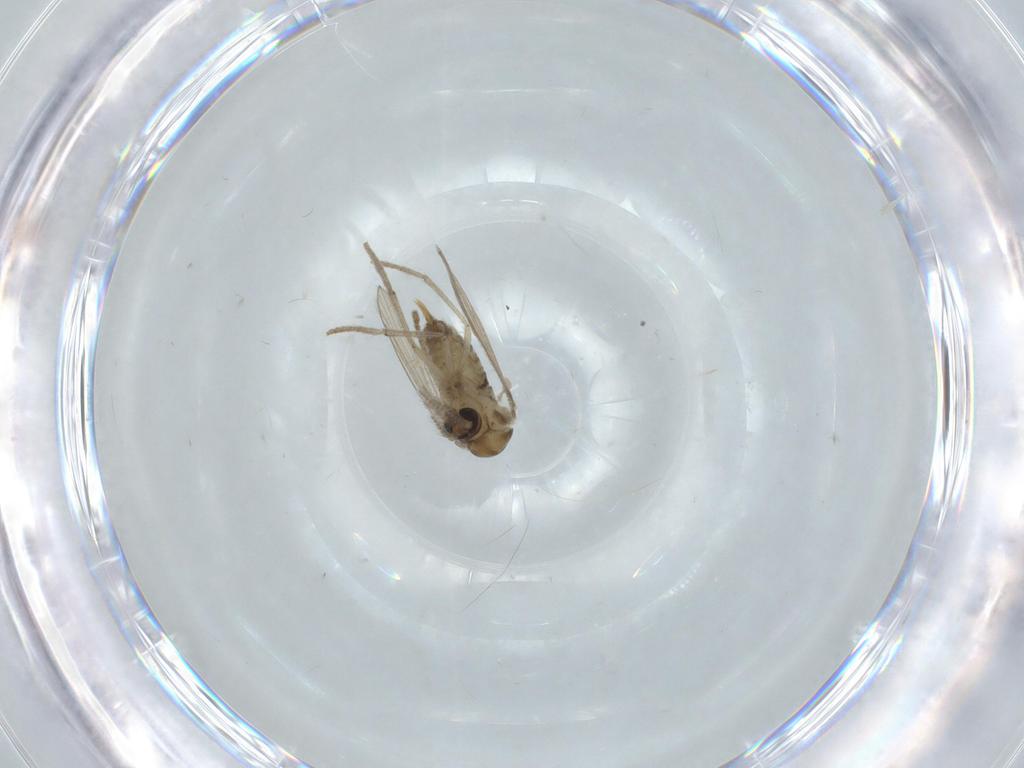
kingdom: Animalia
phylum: Arthropoda
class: Insecta
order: Diptera
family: Psychodidae
